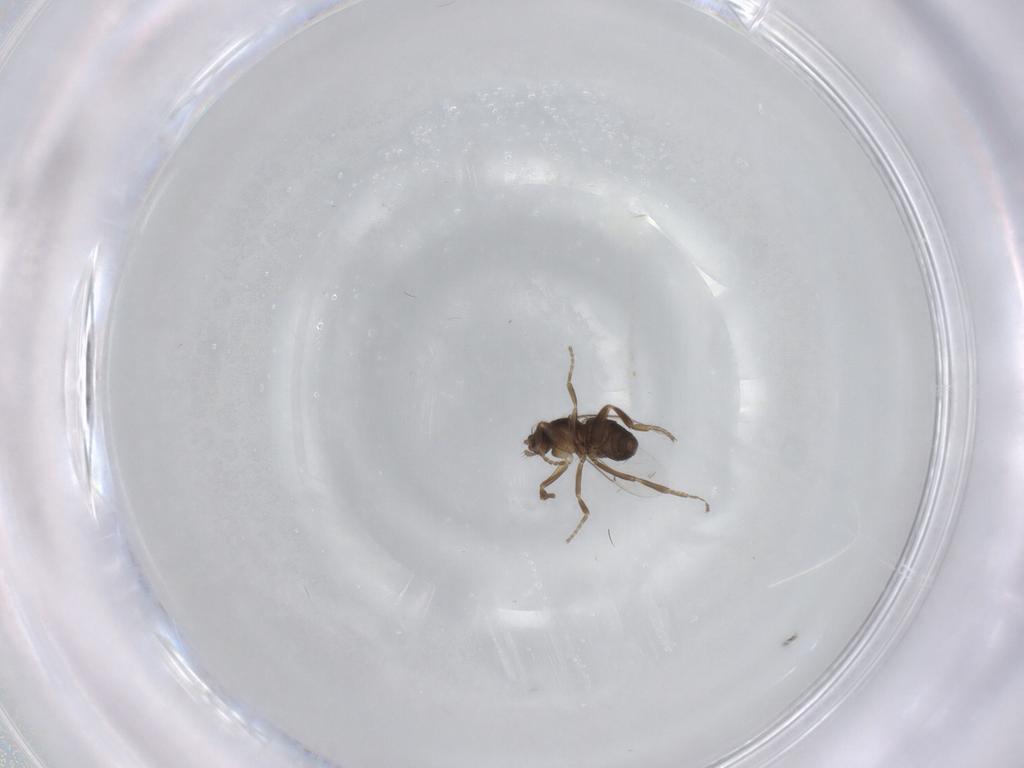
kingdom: Animalia
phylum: Arthropoda
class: Insecta
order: Diptera
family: Phoridae
